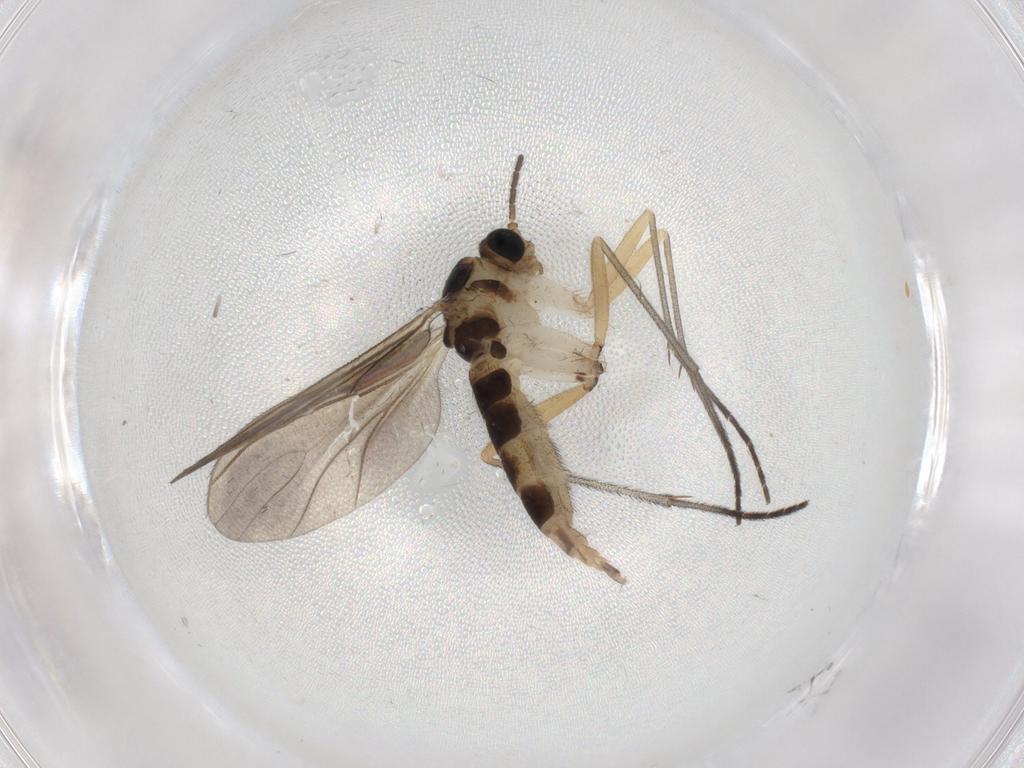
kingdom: Animalia
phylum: Arthropoda
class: Insecta
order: Diptera
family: Sciaridae
